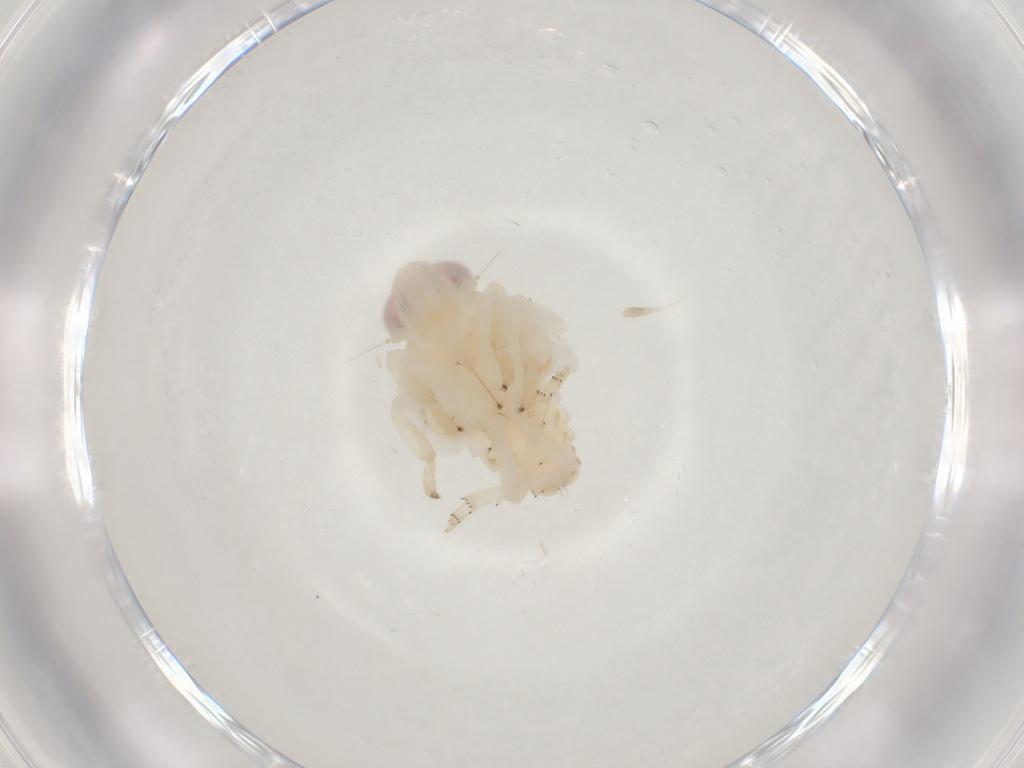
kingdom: Animalia
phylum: Arthropoda
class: Insecta
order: Hemiptera
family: Nogodinidae
